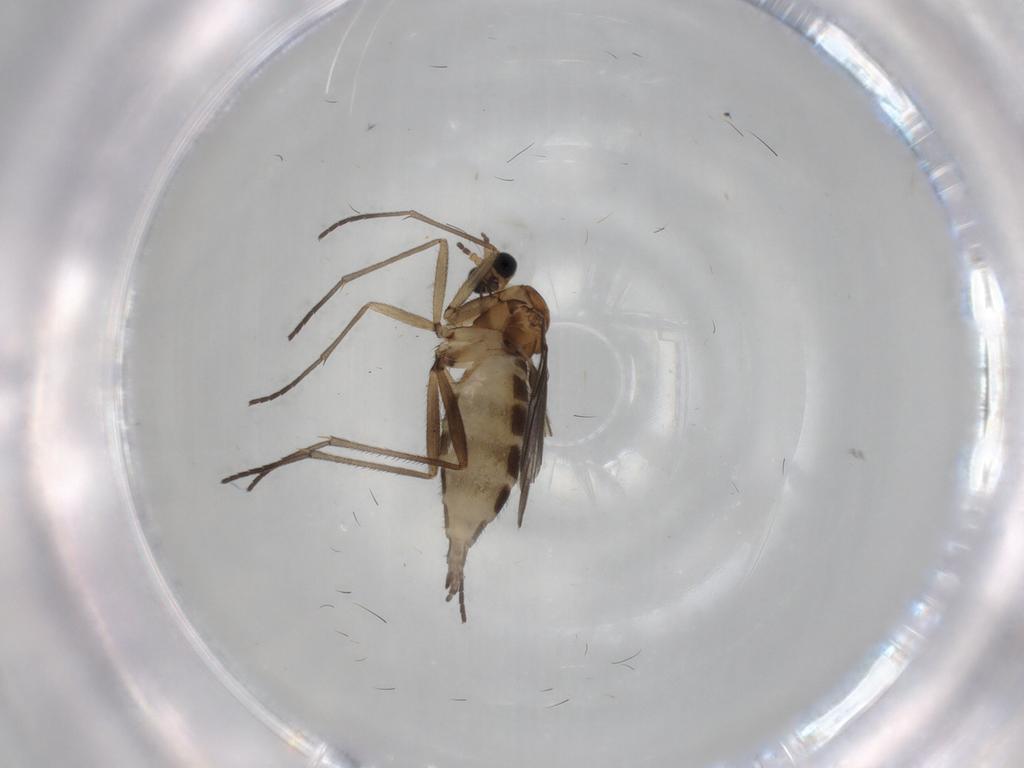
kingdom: Animalia
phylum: Arthropoda
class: Insecta
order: Diptera
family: Sciaridae
